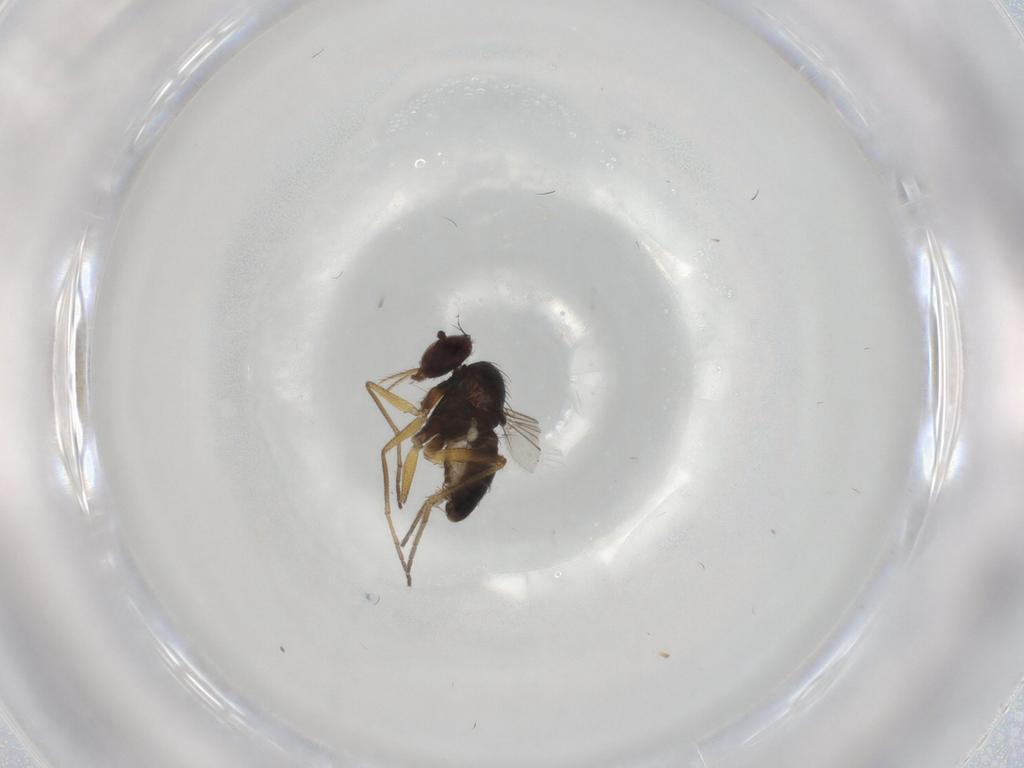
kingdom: Animalia
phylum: Arthropoda
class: Insecta
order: Diptera
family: Dolichopodidae
